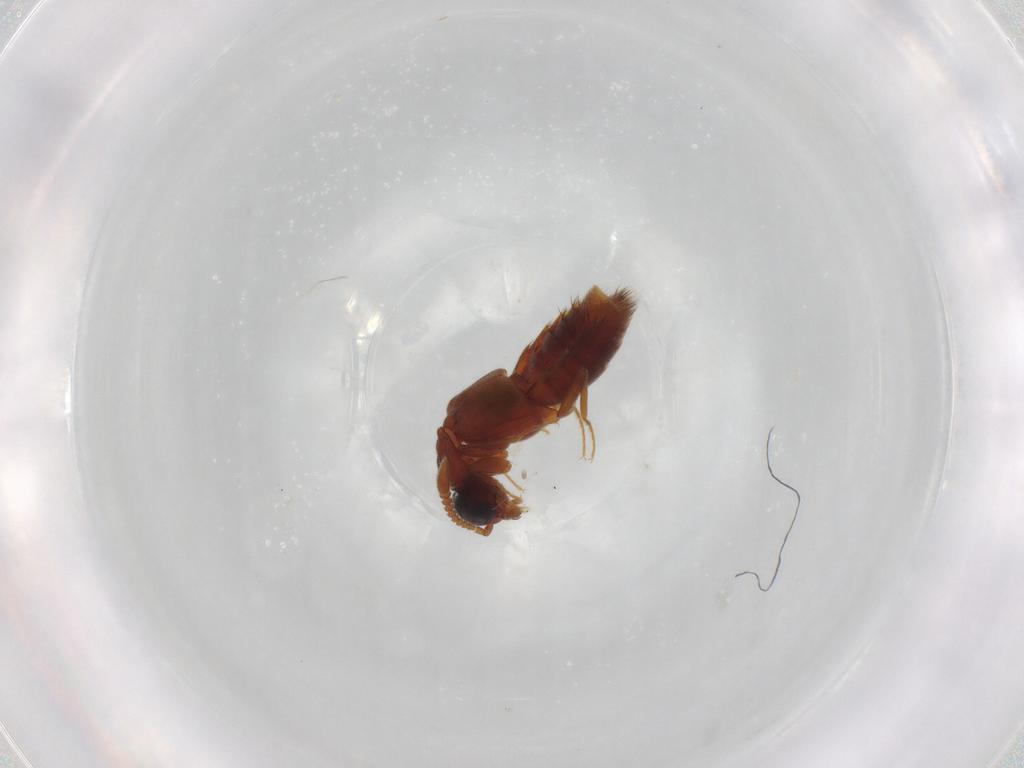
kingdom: Animalia
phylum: Arthropoda
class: Insecta
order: Coleoptera
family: Staphylinidae
